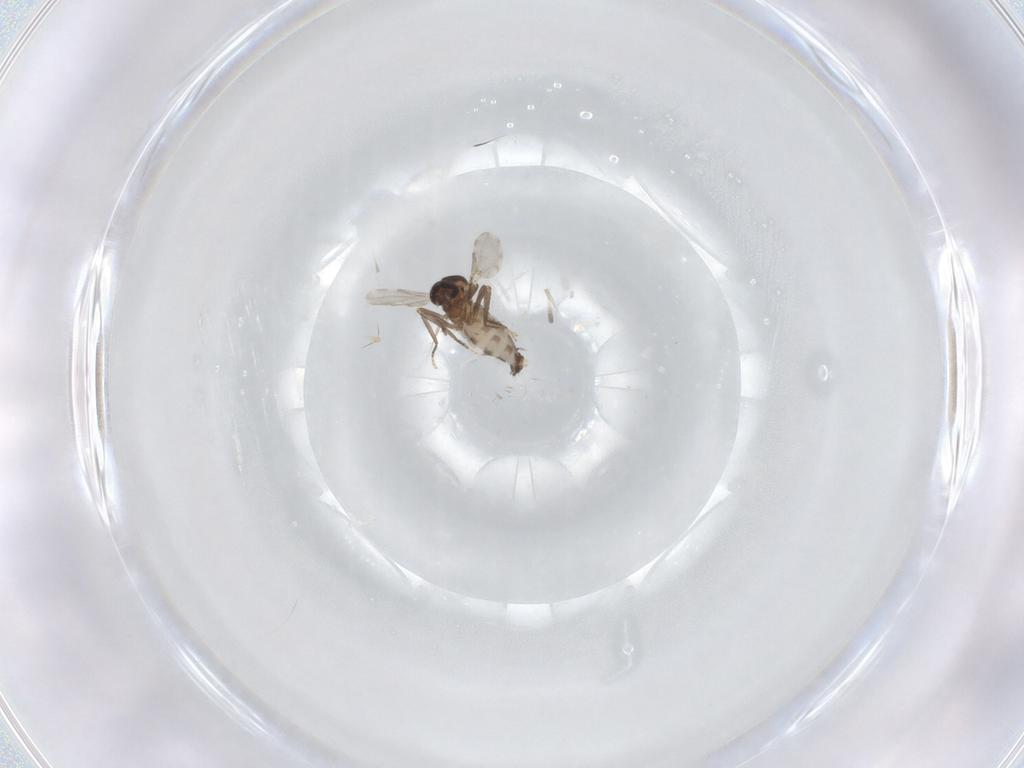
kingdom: Animalia
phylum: Arthropoda
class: Insecta
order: Diptera
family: Ceratopogonidae
